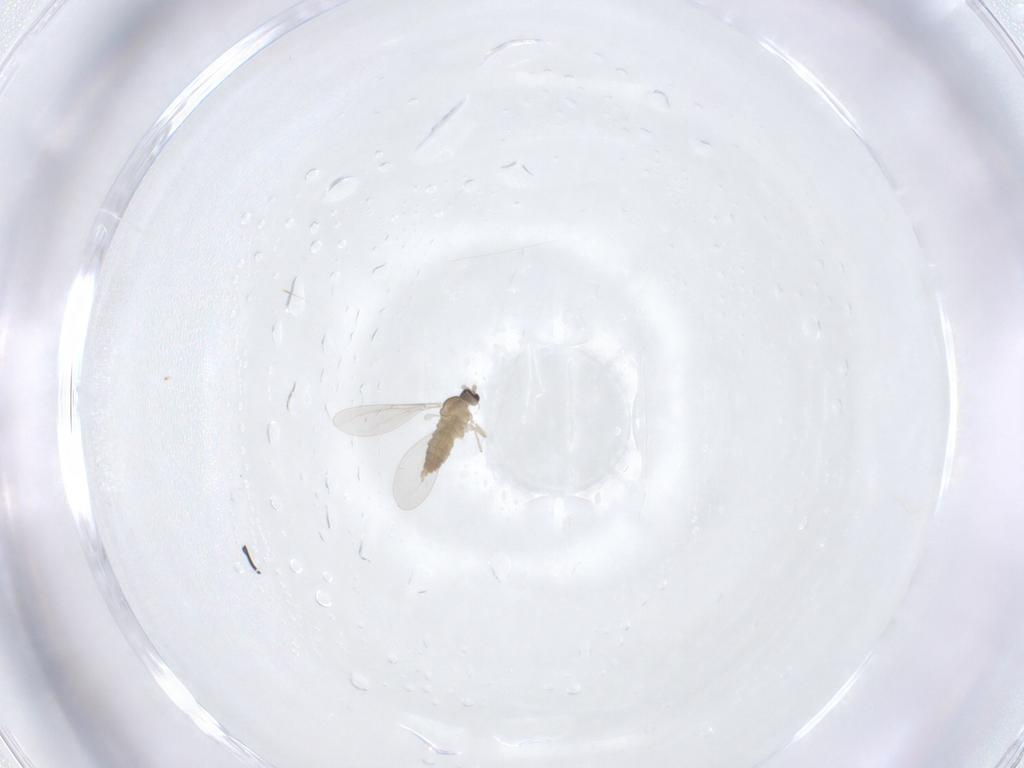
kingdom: Animalia
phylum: Arthropoda
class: Insecta
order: Diptera
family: Cecidomyiidae
